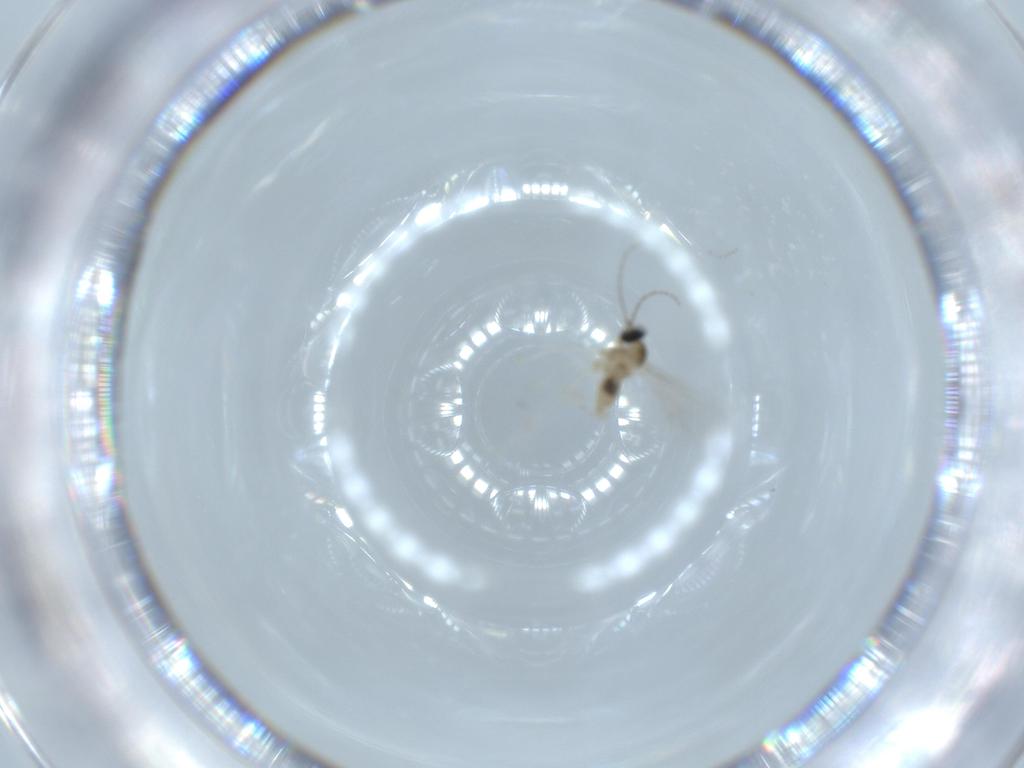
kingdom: Animalia
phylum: Arthropoda
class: Insecta
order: Diptera
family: Cecidomyiidae
